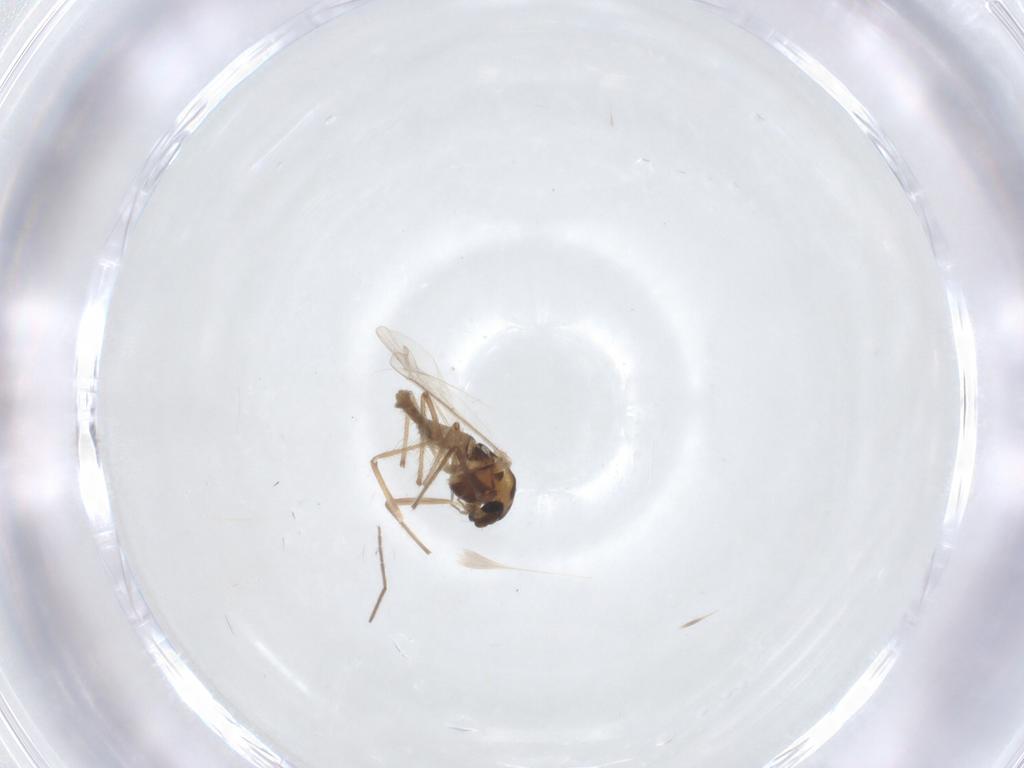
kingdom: Animalia
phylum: Arthropoda
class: Insecta
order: Diptera
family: Chironomidae
